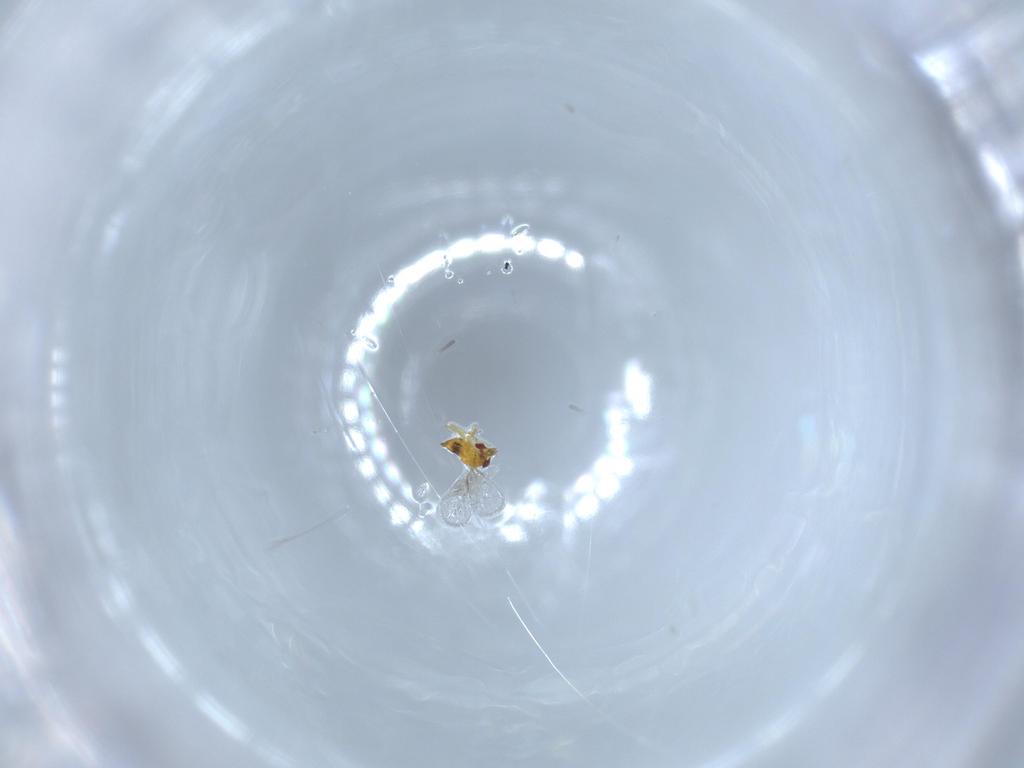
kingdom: Animalia
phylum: Arthropoda
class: Insecta
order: Hymenoptera
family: Trichogrammatidae
